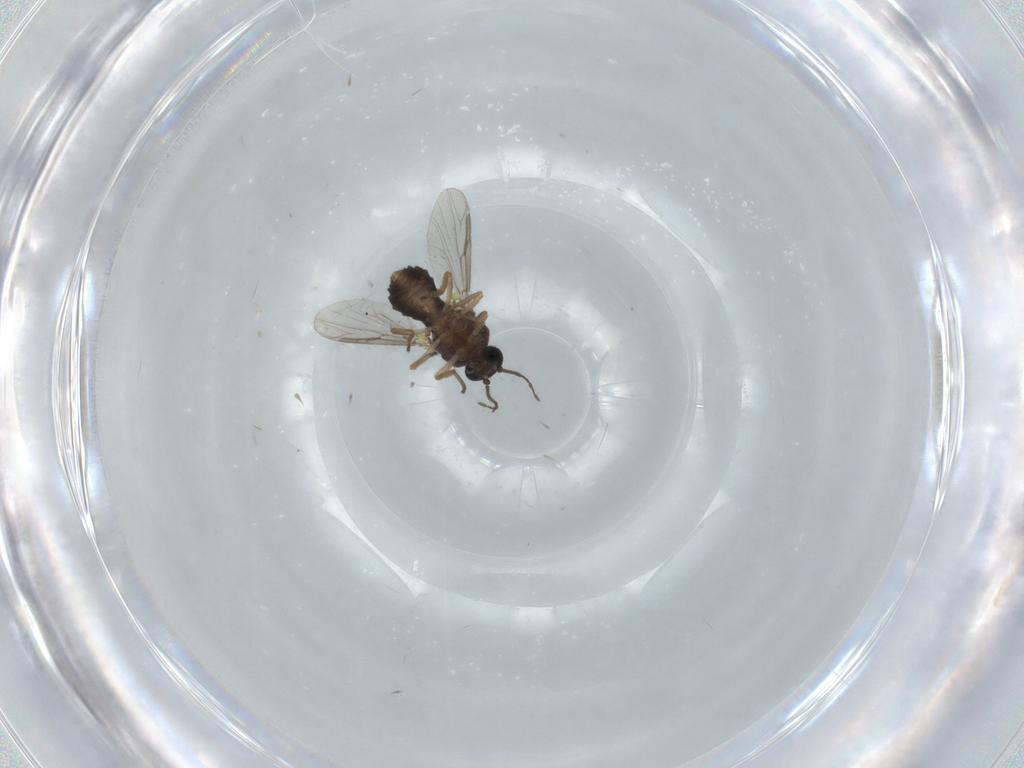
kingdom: Animalia
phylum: Arthropoda
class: Insecta
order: Diptera
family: Ceratopogonidae
